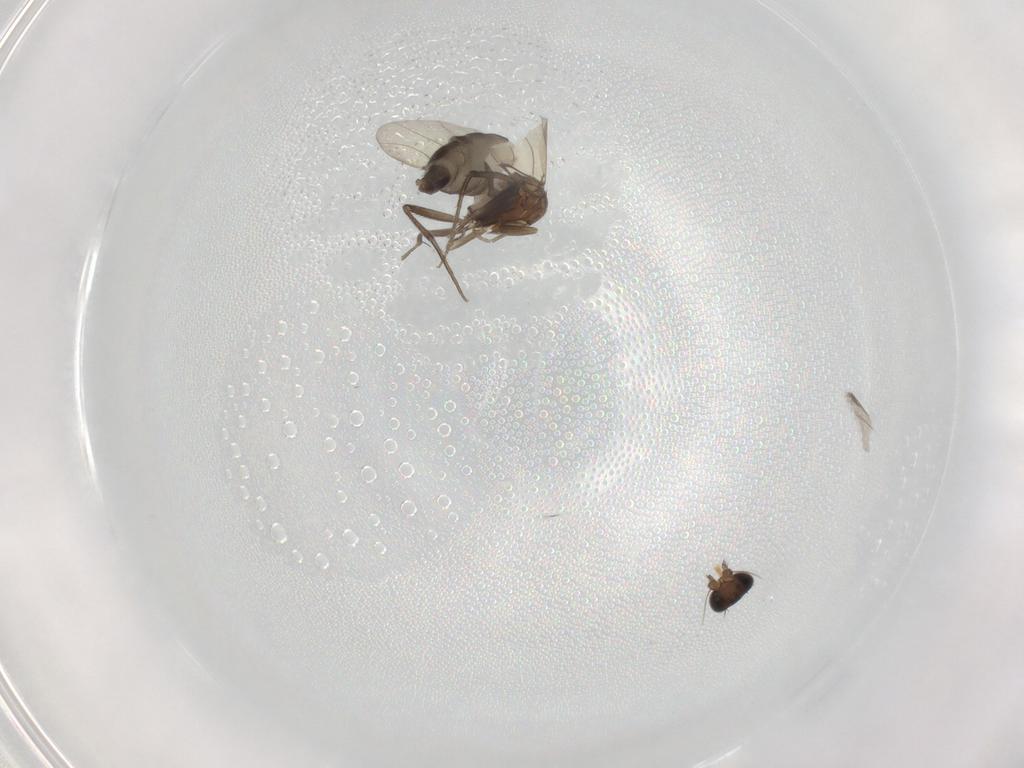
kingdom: Animalia
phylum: Arthropoda
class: Insecta
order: Diptera
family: Phoridae
